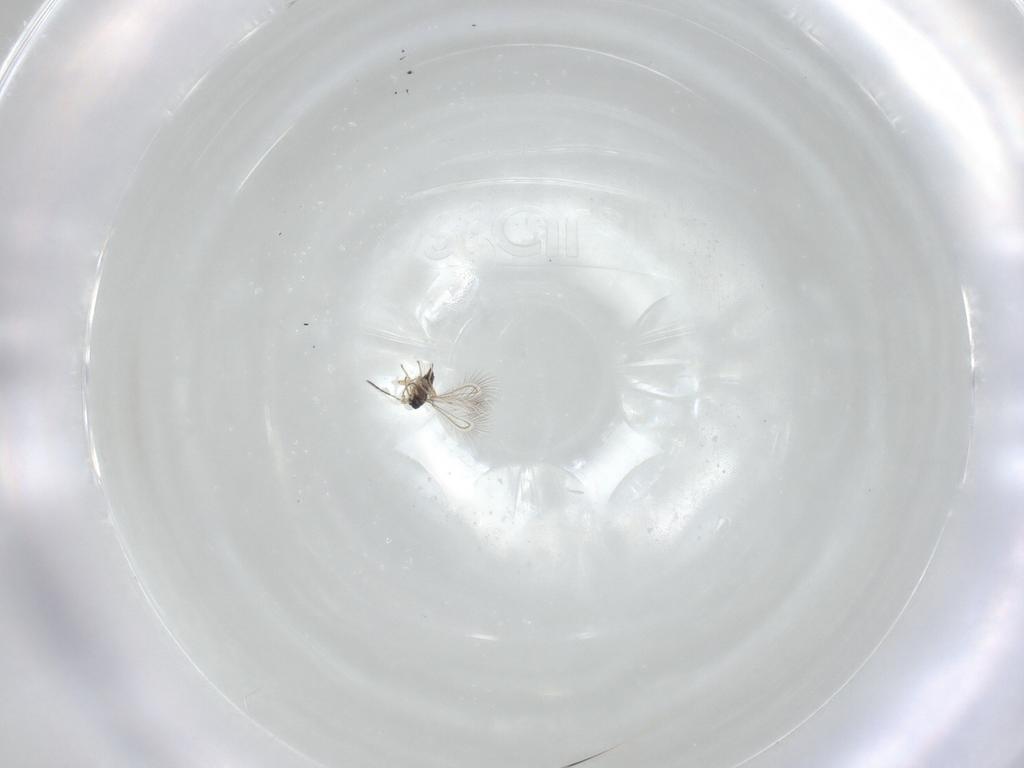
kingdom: Animalia
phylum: Arthropoda
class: Insecta
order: Hymenoptera
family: Mymaridae
